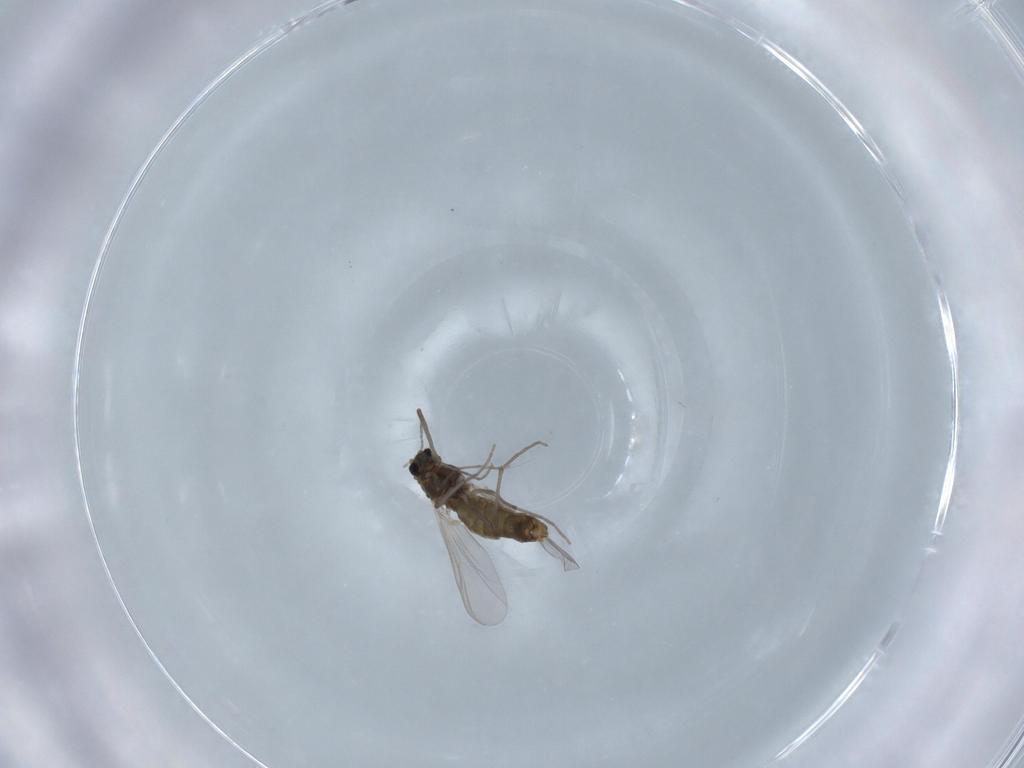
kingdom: Animalia
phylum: Arthropoda
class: Insecta
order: Diptera
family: Chironomidae
